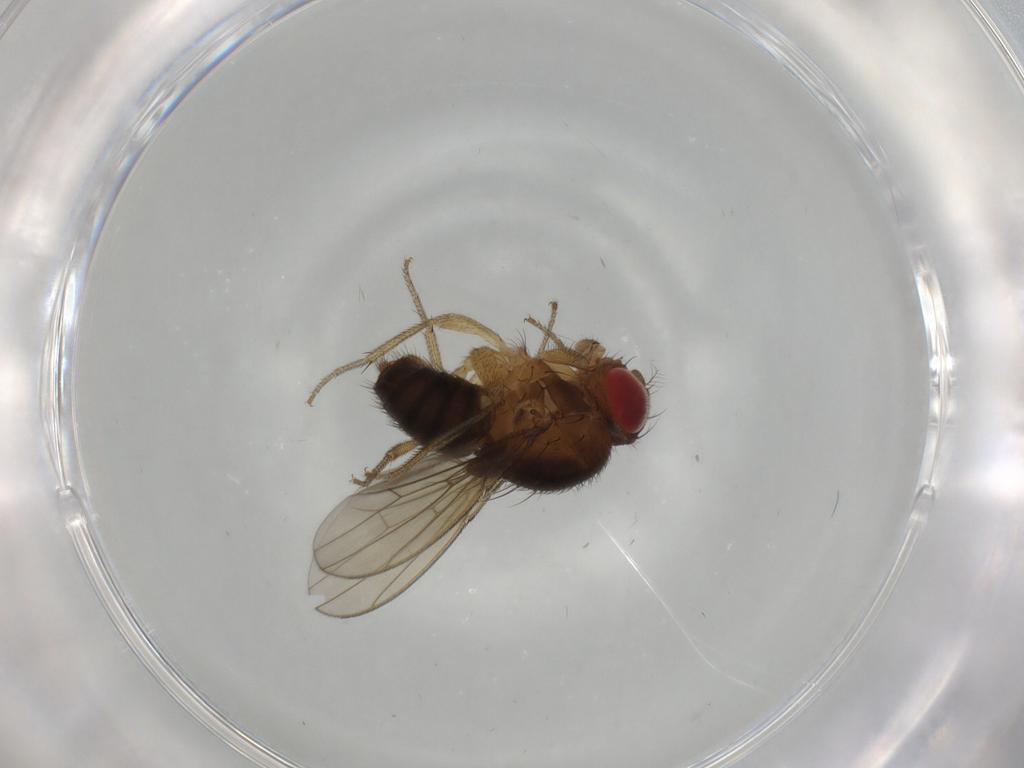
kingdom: Animalia
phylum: Arthropoda
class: Insecta
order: Diptera
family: Drosophilidae
